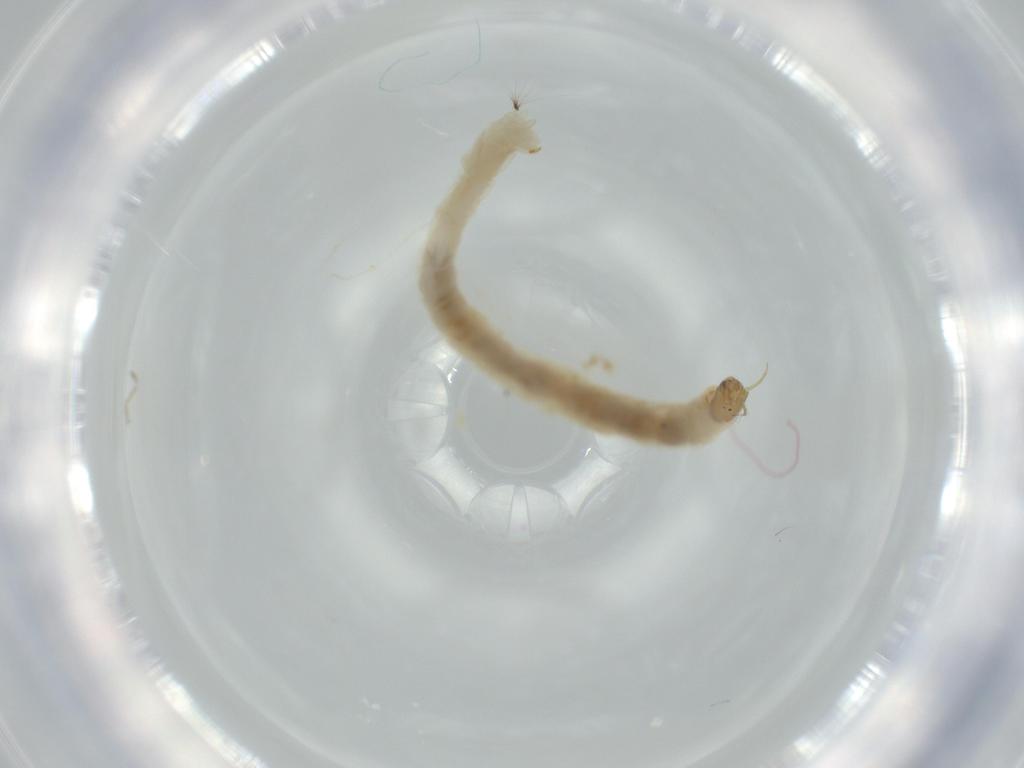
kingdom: Animalia
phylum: Arthropoda
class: Insecta
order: Diptera
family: Chironomidae
